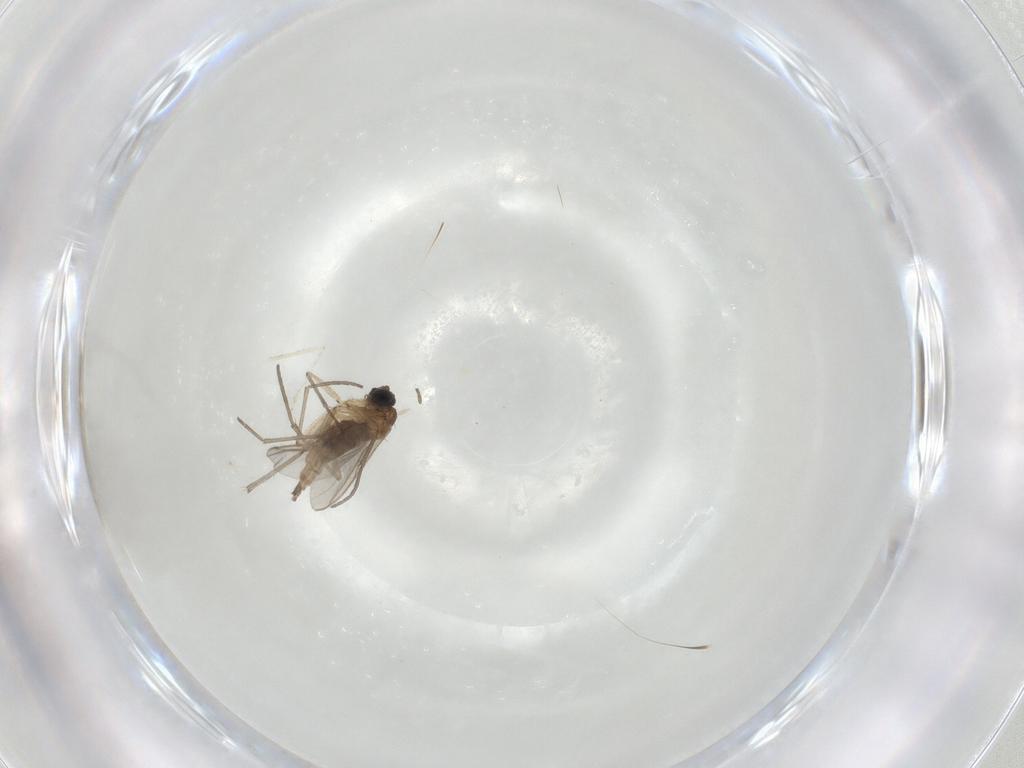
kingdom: Animalia
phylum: Arthropoda
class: Insecta
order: Diptera
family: Sciaridae
